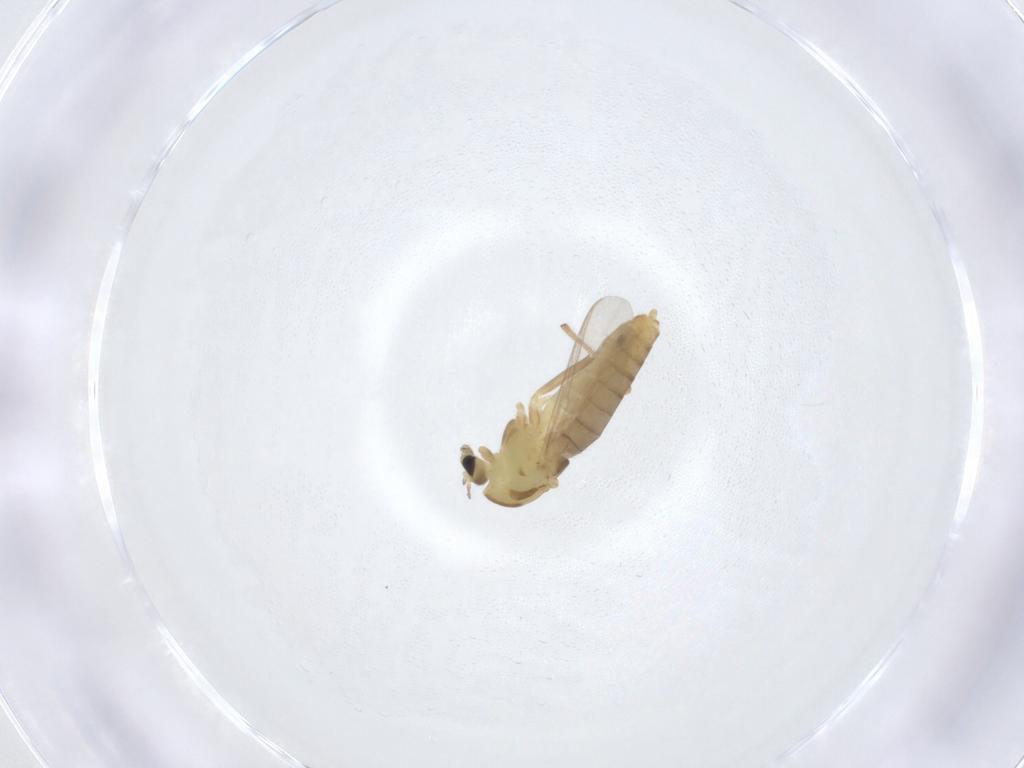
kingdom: Animalia
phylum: Arthropoda
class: Insecta
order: Diptera
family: Chironomidae
